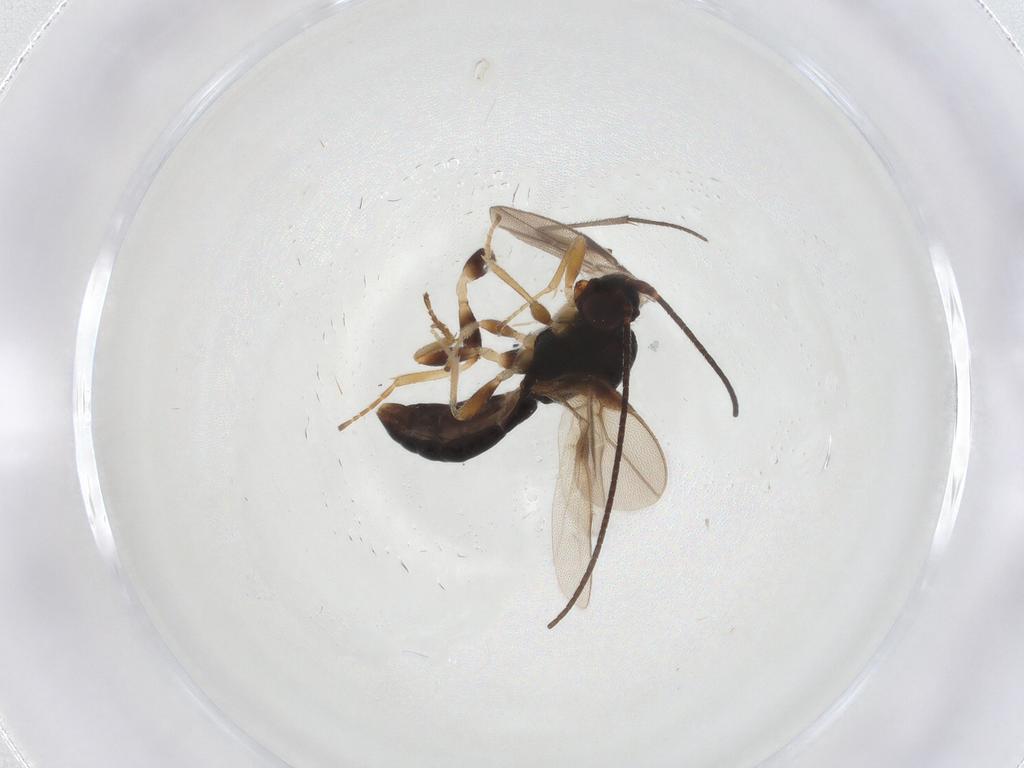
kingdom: Animalia
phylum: Arthropoda
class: Insecta
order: Hymenoptera
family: Braconidae
